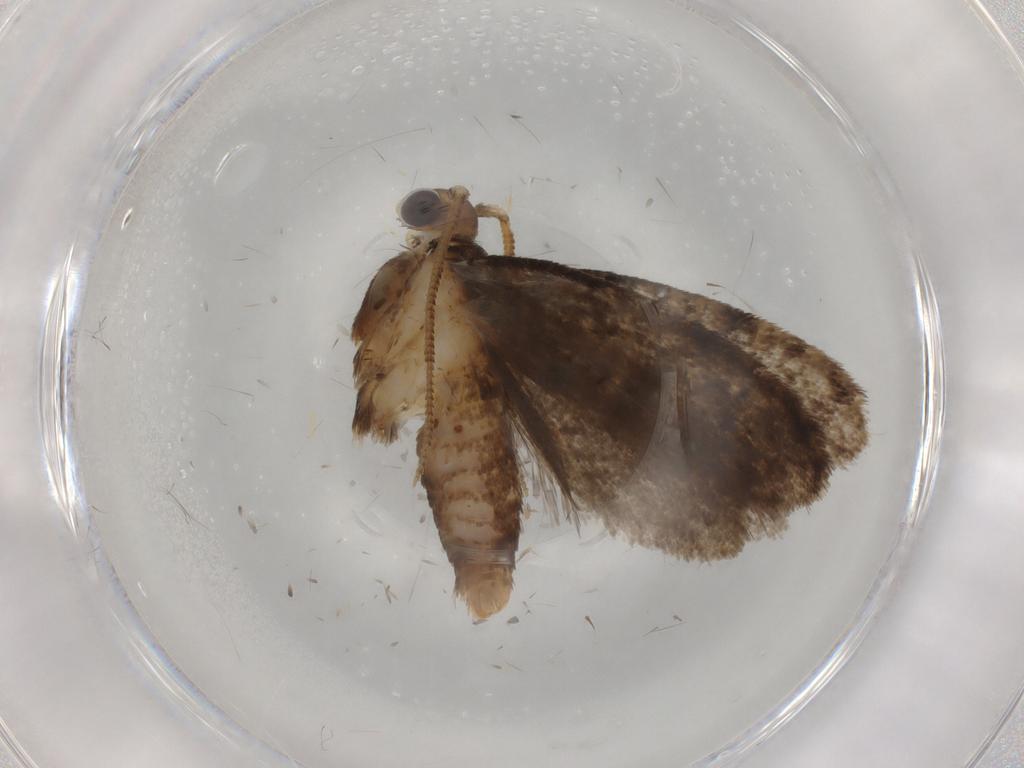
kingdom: Animalia
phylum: Arthropoda
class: Insecta
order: Lepidoptera
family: Tineidae
